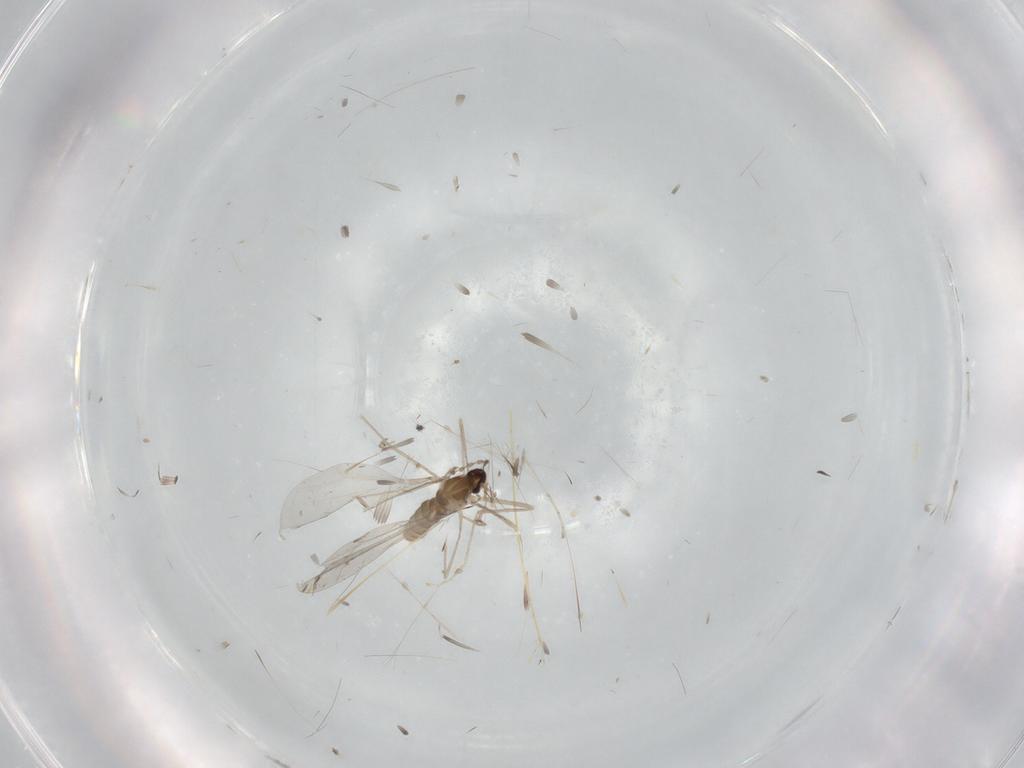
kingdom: Animalia
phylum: Arthropoda
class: Insecta
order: Diptera
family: Cecidomyiidae
